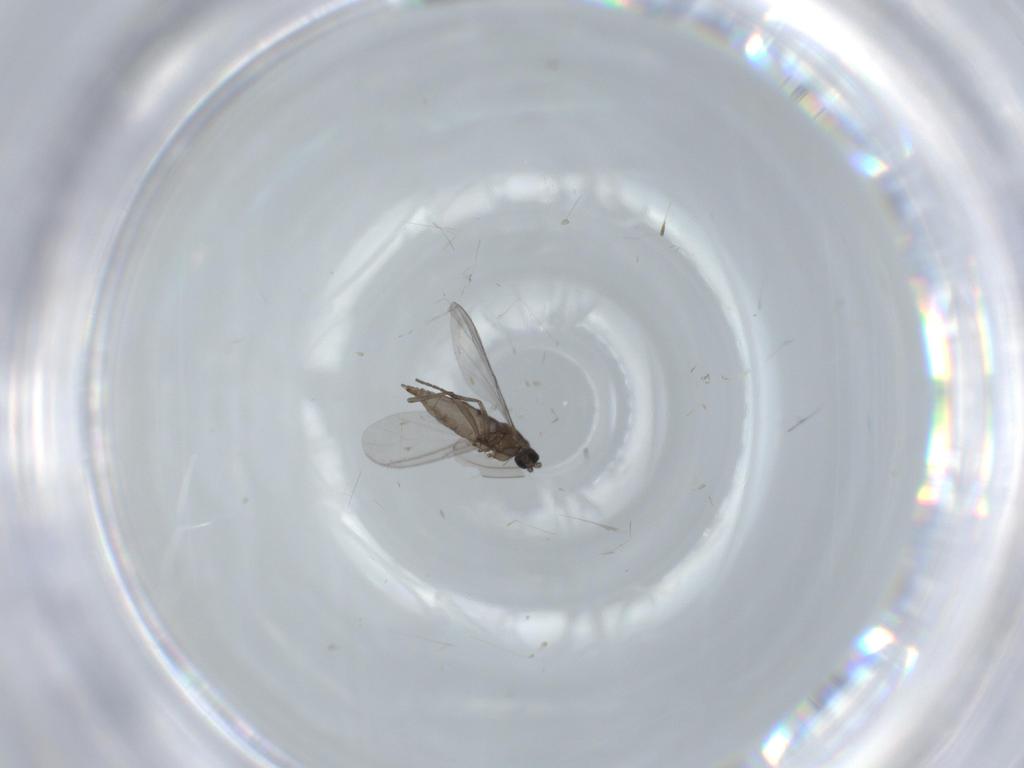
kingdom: Animalia
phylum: Arthropoda
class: Insecta
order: Diptera
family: Sciaridae
